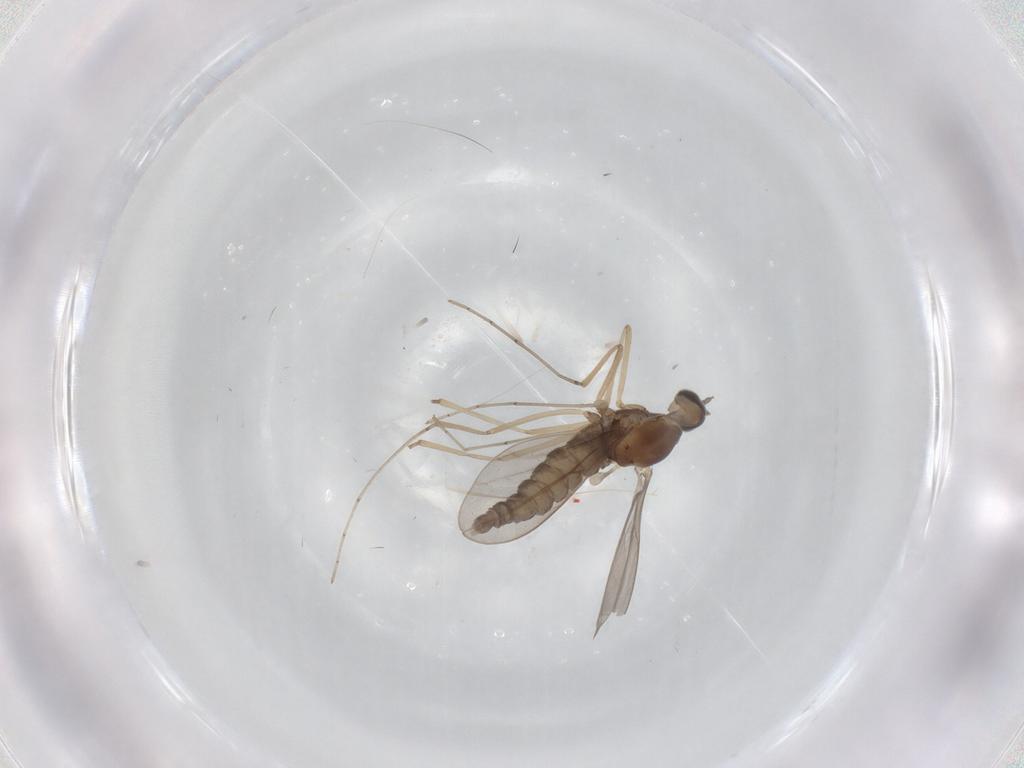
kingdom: Animalia
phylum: Arthropoda
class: Insecta
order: Diptera
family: Cecidomyiidae
